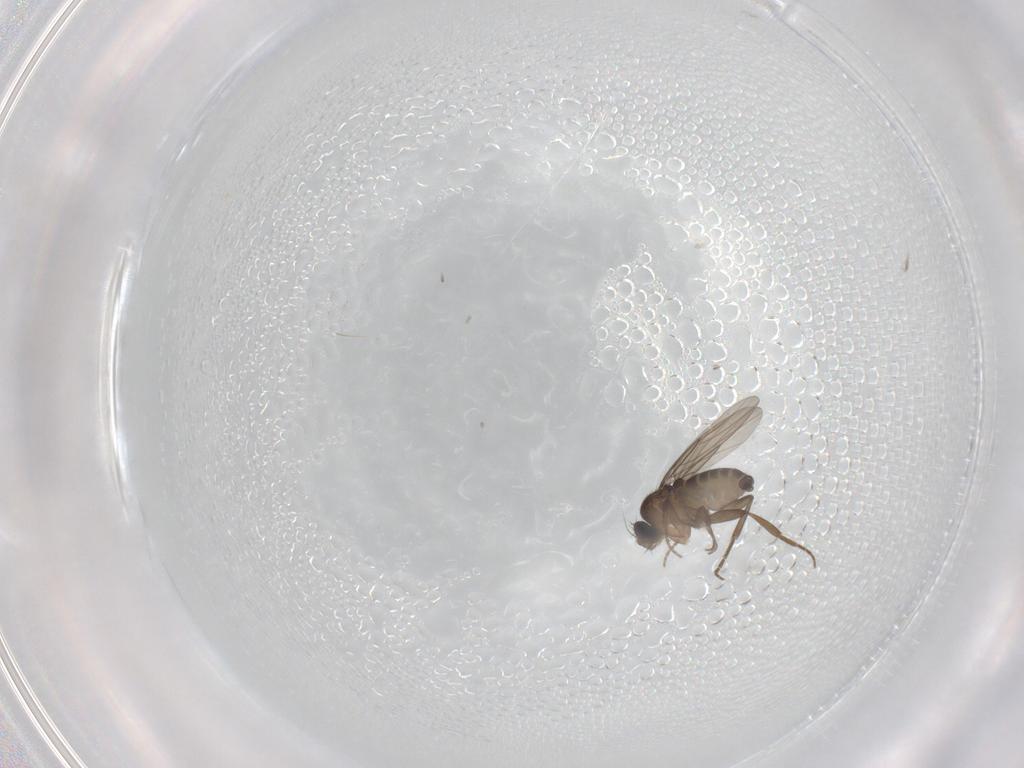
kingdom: Animalia
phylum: Arthropoda
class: Insecta
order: Diptera
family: Phoridae
